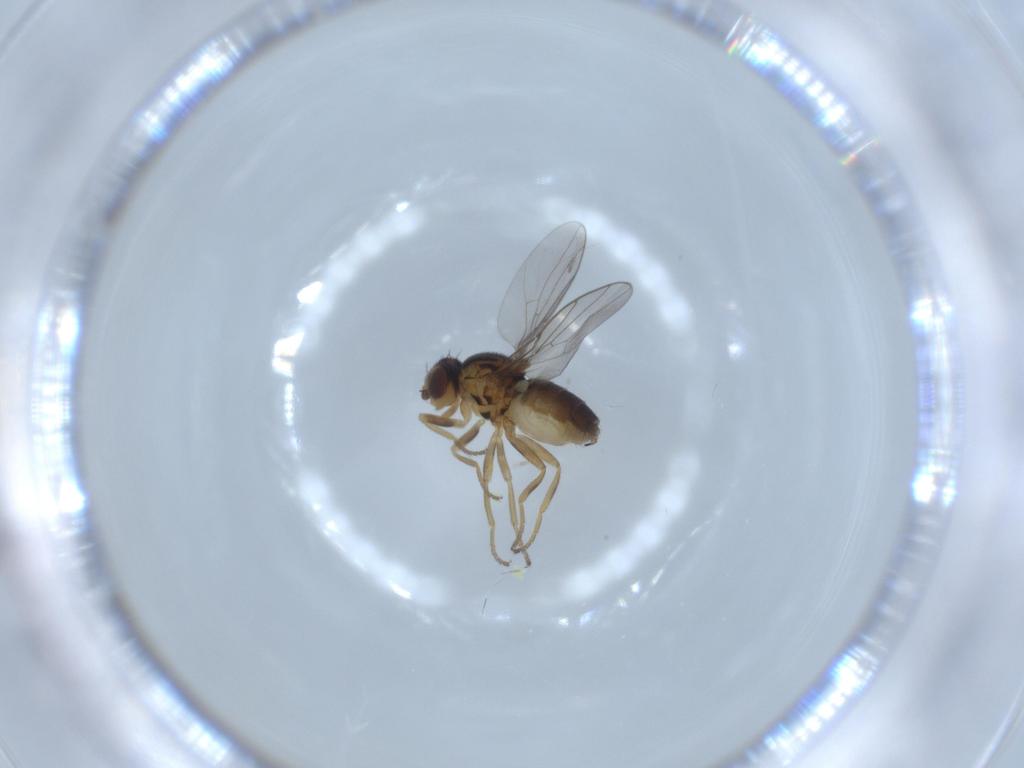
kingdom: Animalia
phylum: Arthropoda
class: Insecta
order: Diptera
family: Chloropidae
